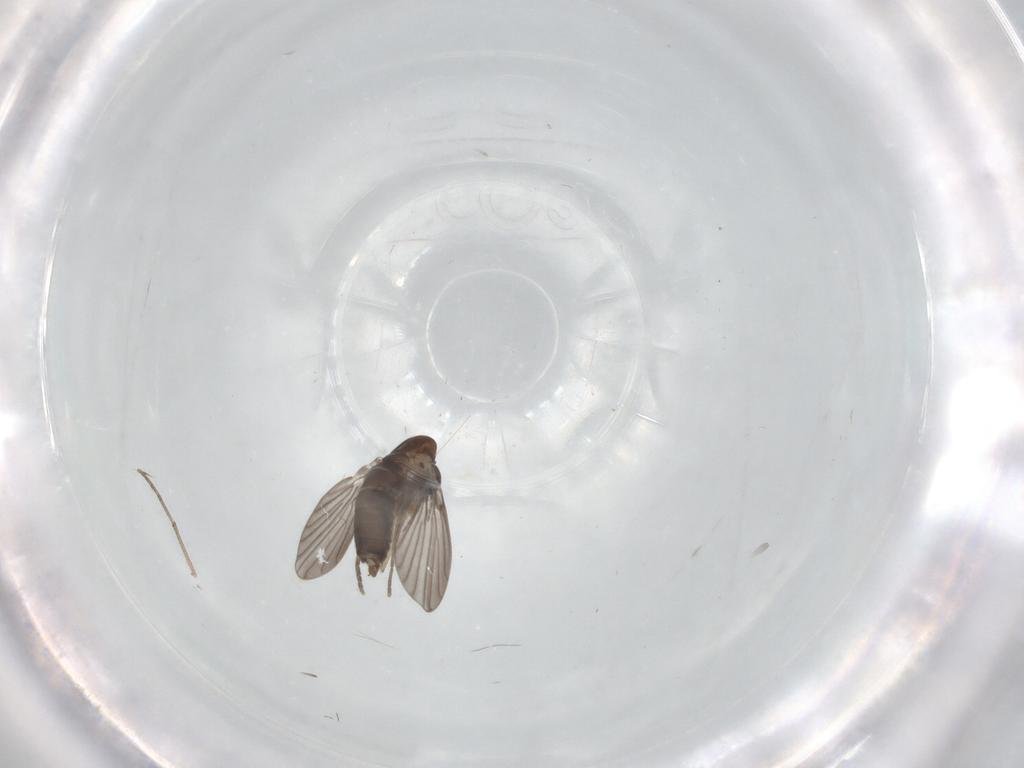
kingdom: Animalia
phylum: Arthropoda
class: Insecta
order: Diptera
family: Sciaridae
